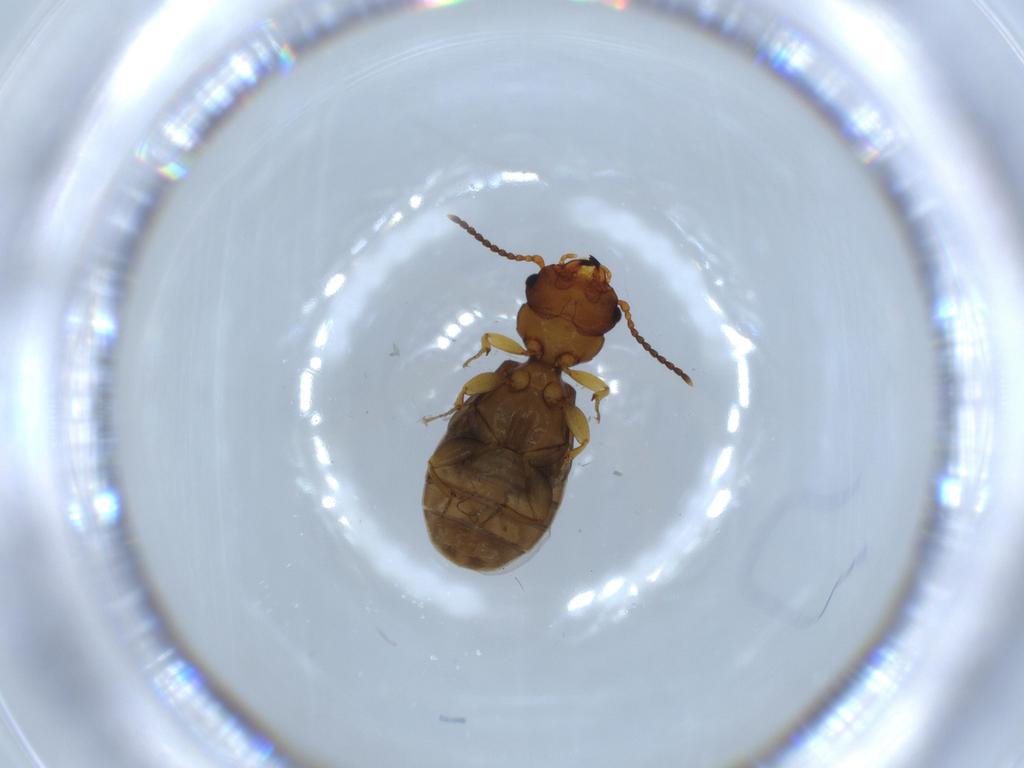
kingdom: Animalia
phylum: Arthropoda
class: Insecta
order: Coleoptera
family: Salpingidae
